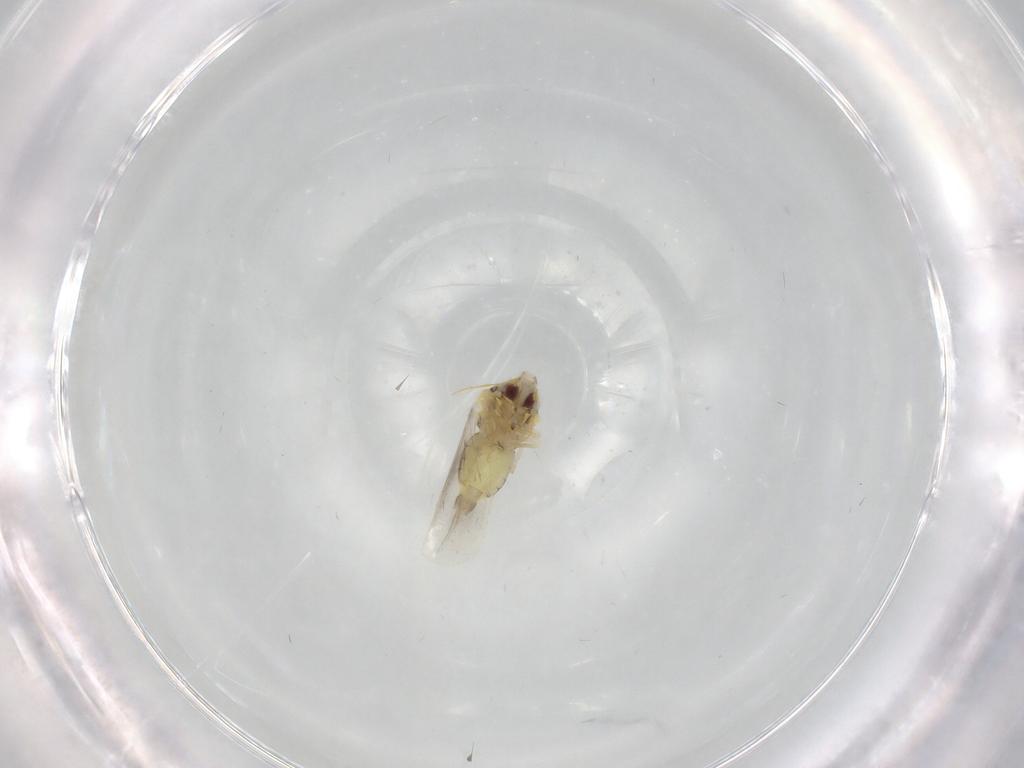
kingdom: Animalia
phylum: Arthropoda
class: Insecta
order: Hemiptera
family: Aleyrodidae
